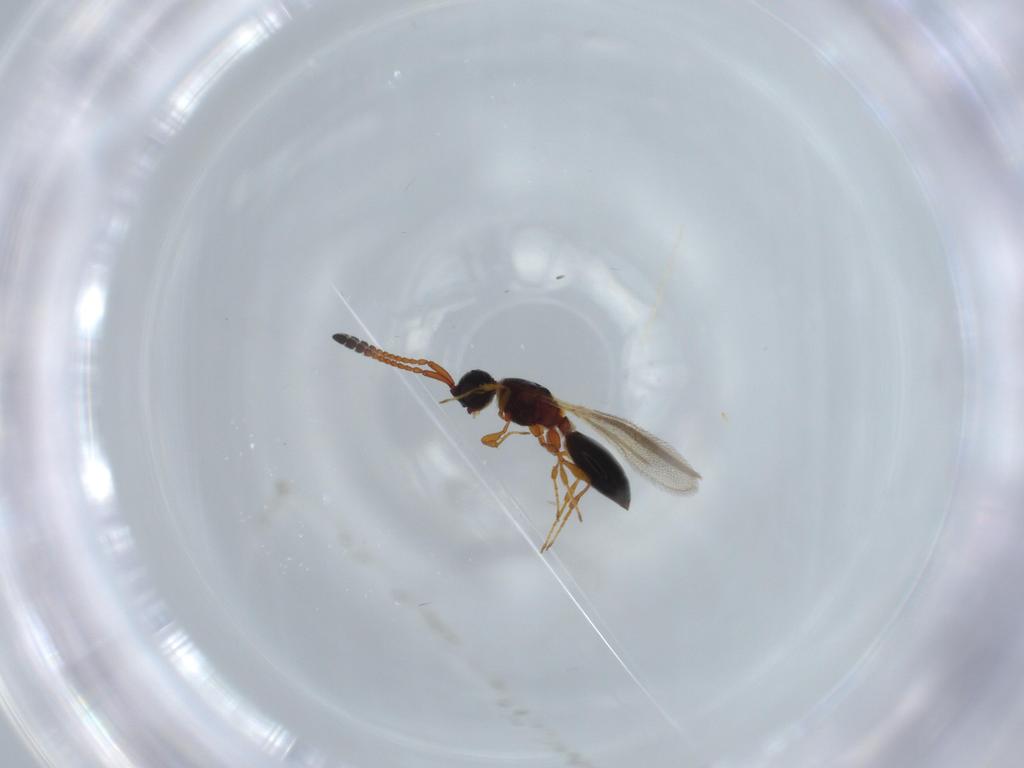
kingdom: Animalia
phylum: Arthropoda
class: Insecta
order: Hymenoptera
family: Diapriidae
